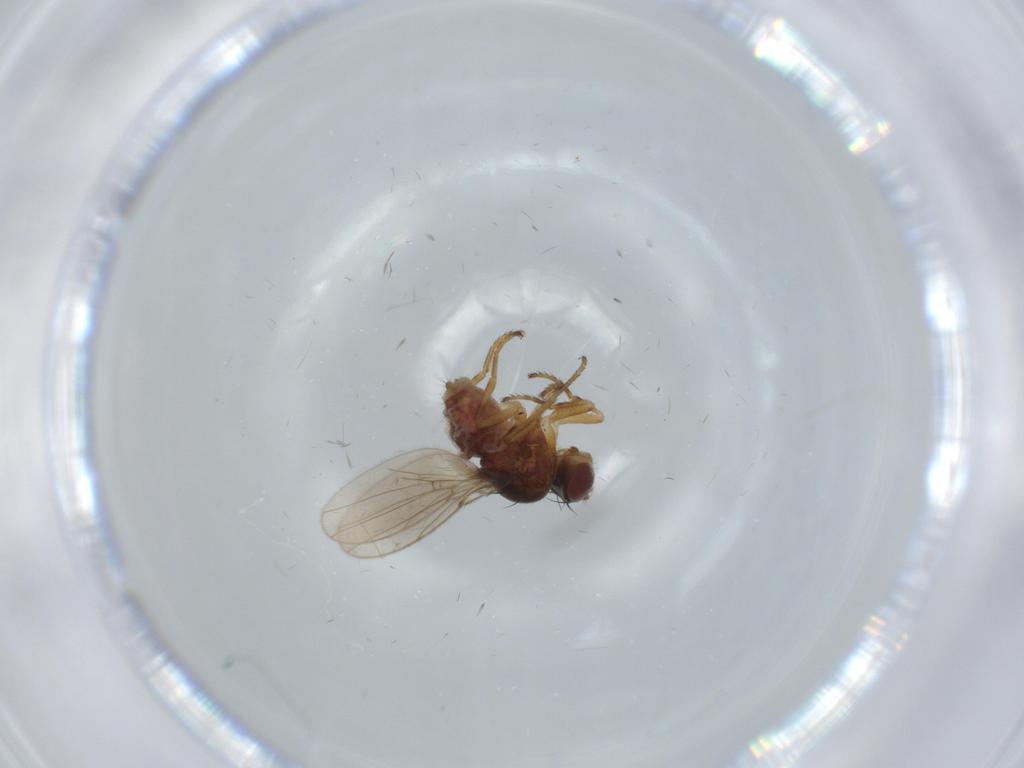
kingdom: Animalia
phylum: Arthropoda
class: Insecta
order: Diptera
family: Ephydridae
